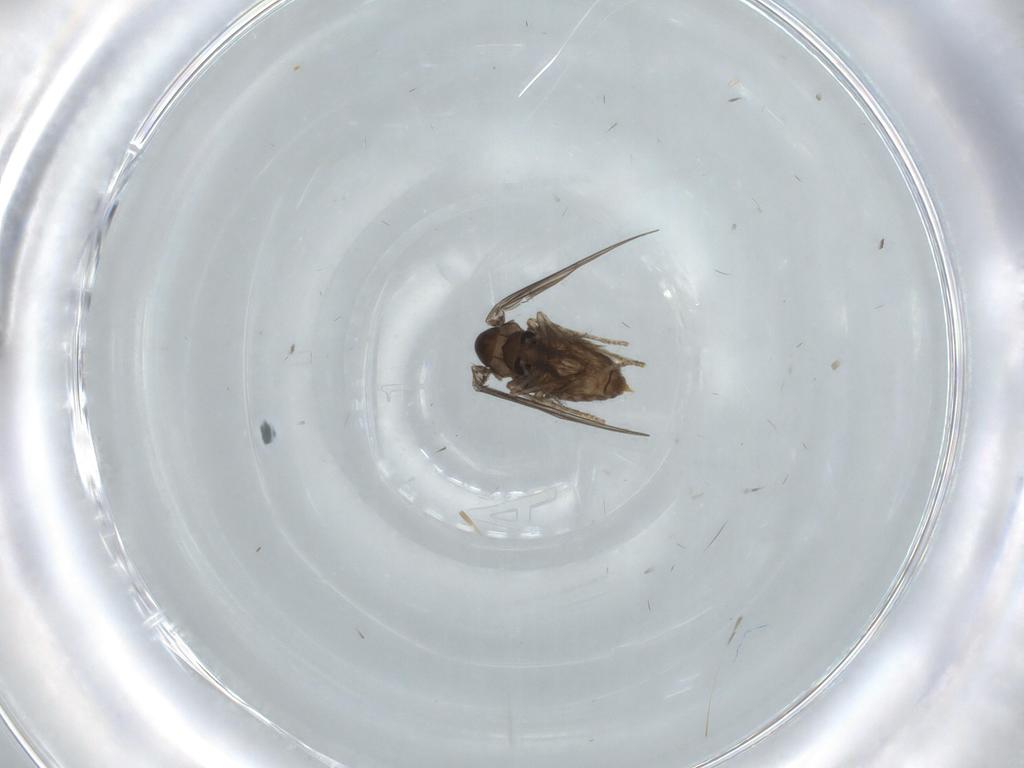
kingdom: Animalia
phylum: Arthropoda
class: Insecta
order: Diptera
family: Psychodidae
